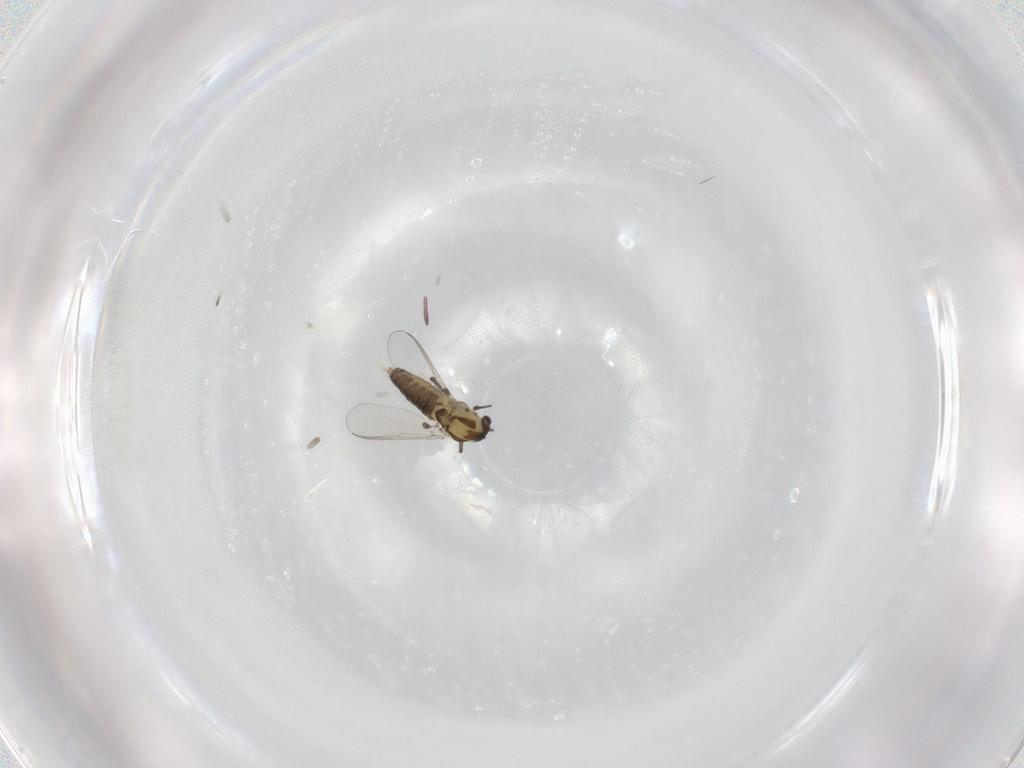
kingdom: Animalia
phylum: Arthropoda
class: Insecta
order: Diptera
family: Chironomidae
